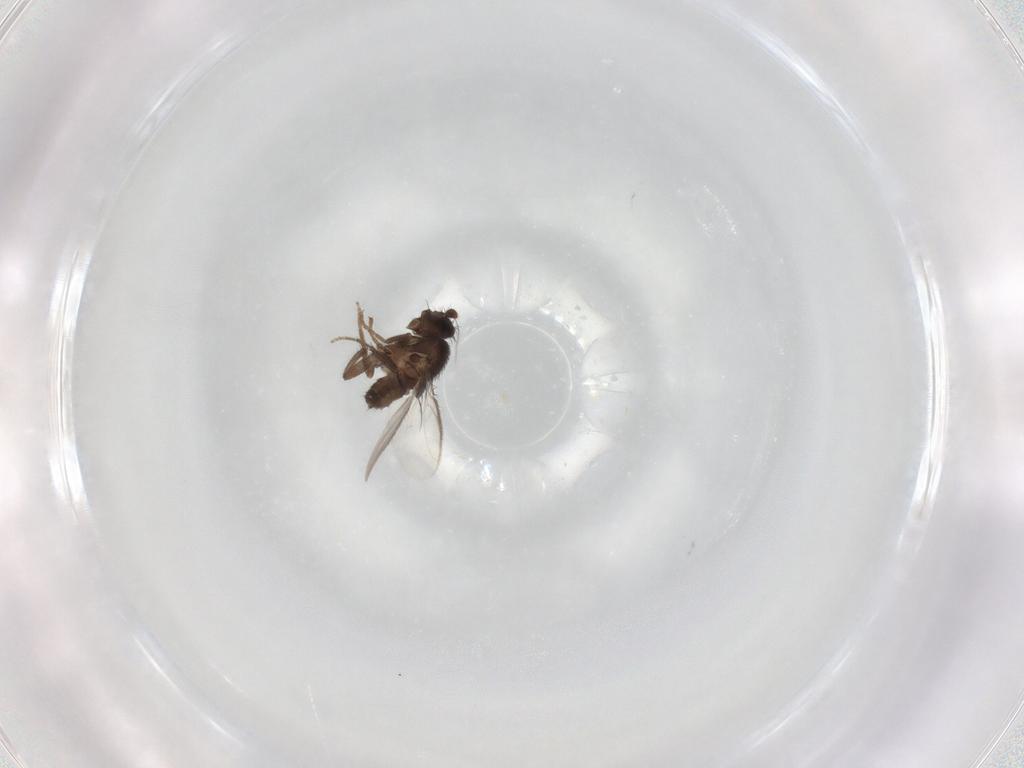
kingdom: Animalia
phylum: Arthropoda
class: Insecta
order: Diptera
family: Sphaeroceridae
